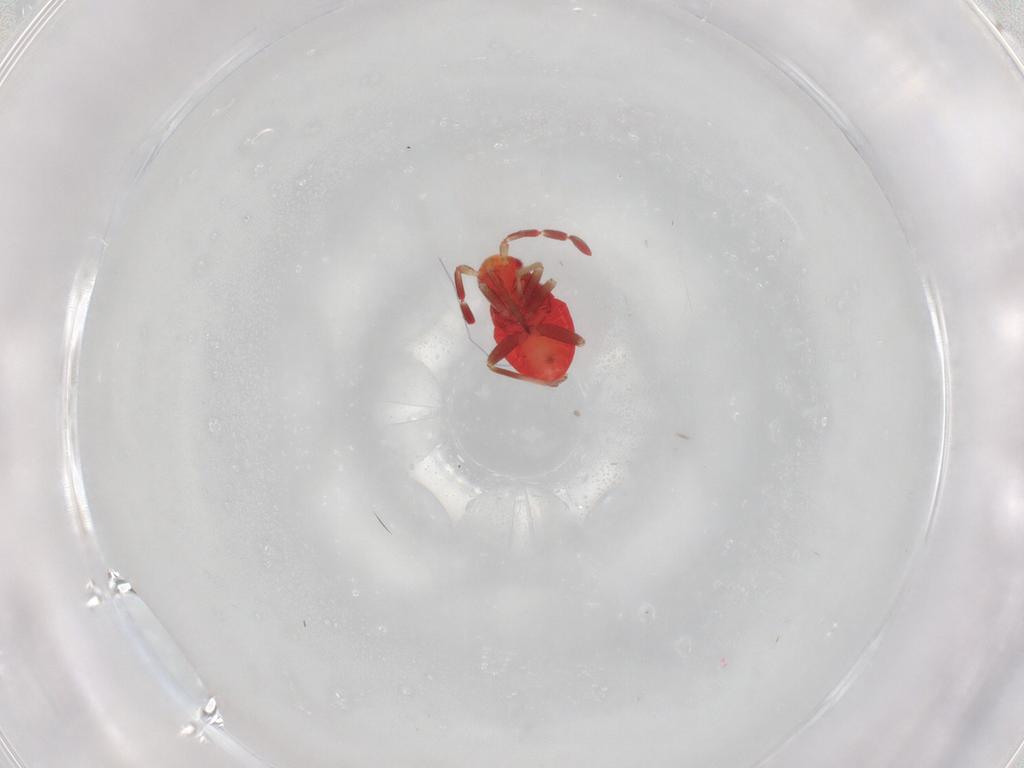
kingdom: Animalia
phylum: Arthropoda
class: Insecta
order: Hemiptera
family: Miridae
